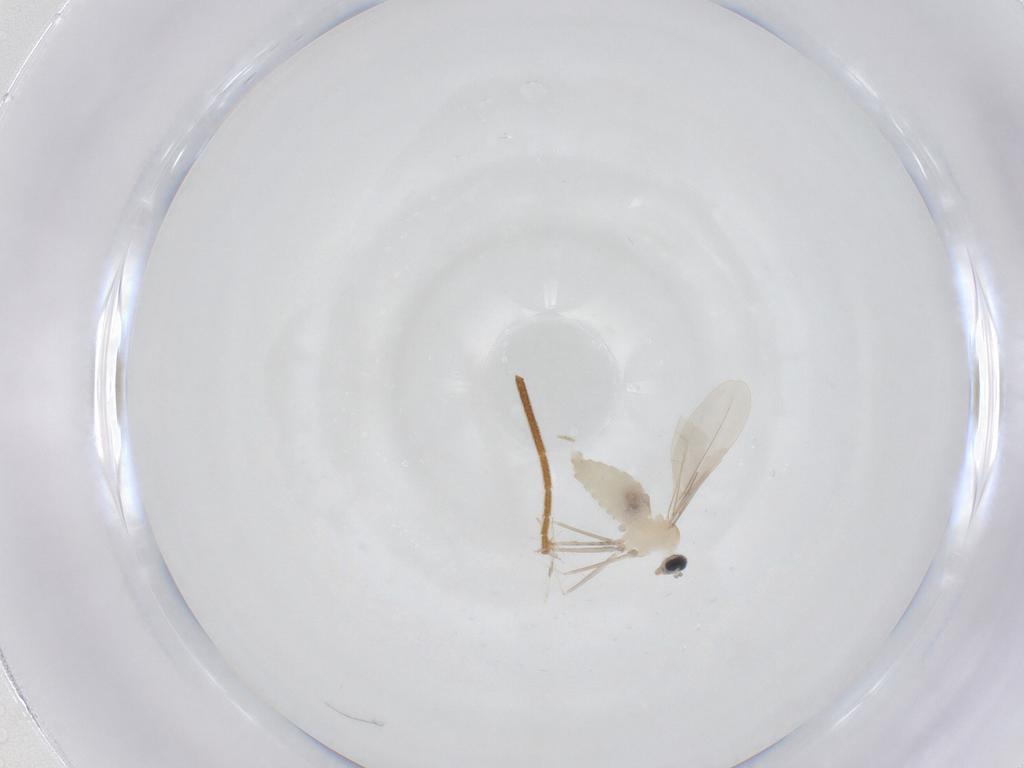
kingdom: Animalia
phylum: Arthropoda
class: Insecta
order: Diptera
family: Cecidomyiidae
